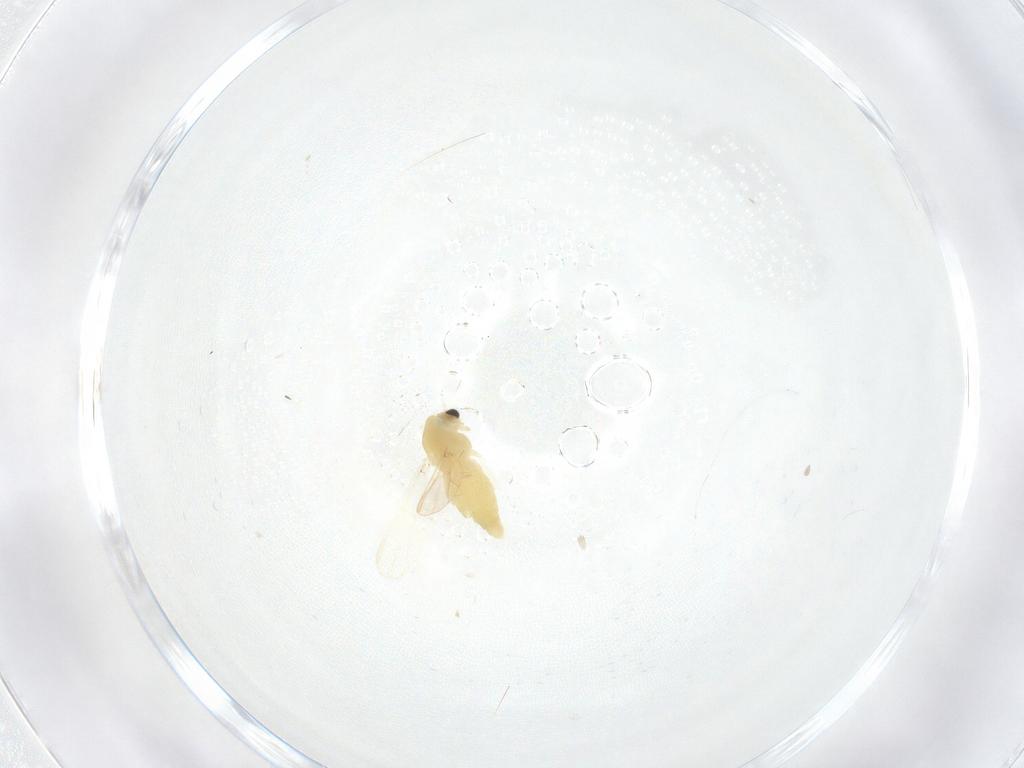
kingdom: Animalia
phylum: Arthropoda
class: Insecta
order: Diptera
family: Chironomidae
